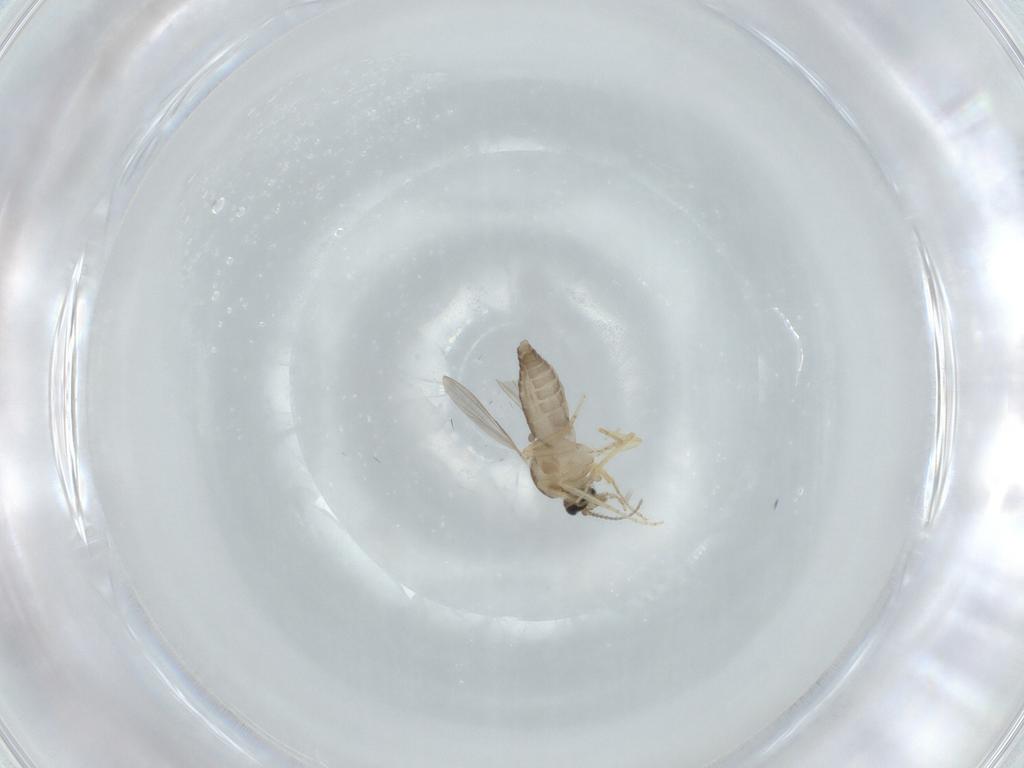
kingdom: Animalia
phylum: Arthropoda
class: Insecta
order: Diptera
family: Ceratopogonidae
